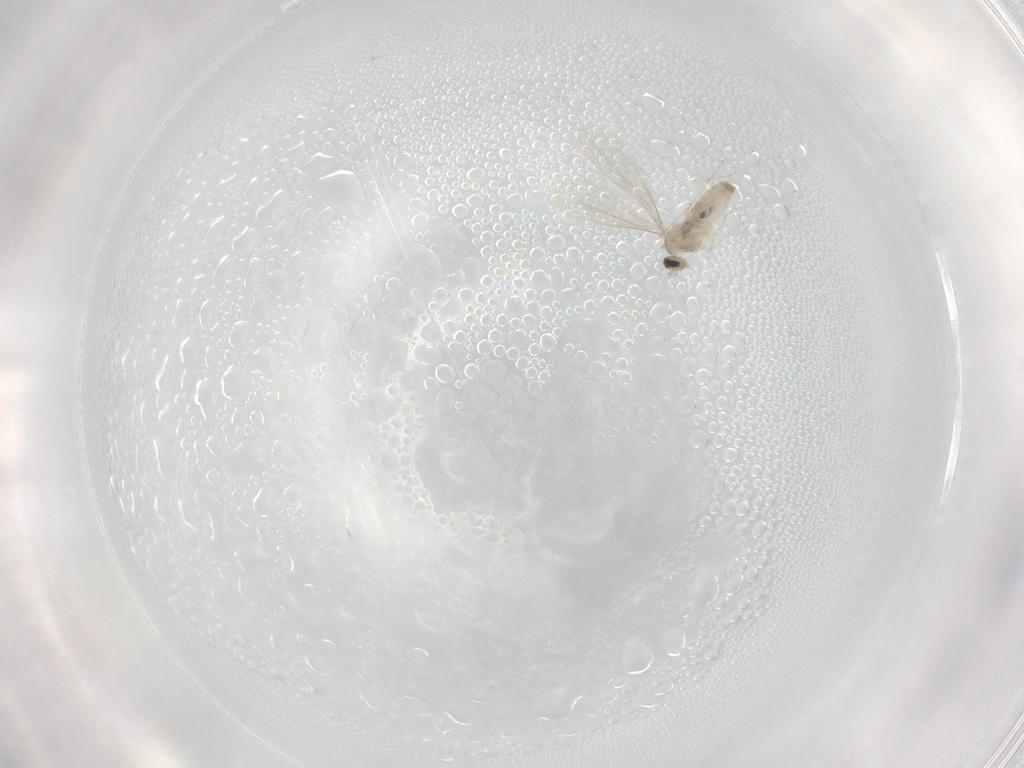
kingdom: Animalia
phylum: Arthropoda
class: Insecta
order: Diptera
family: Cecidomyiidae
